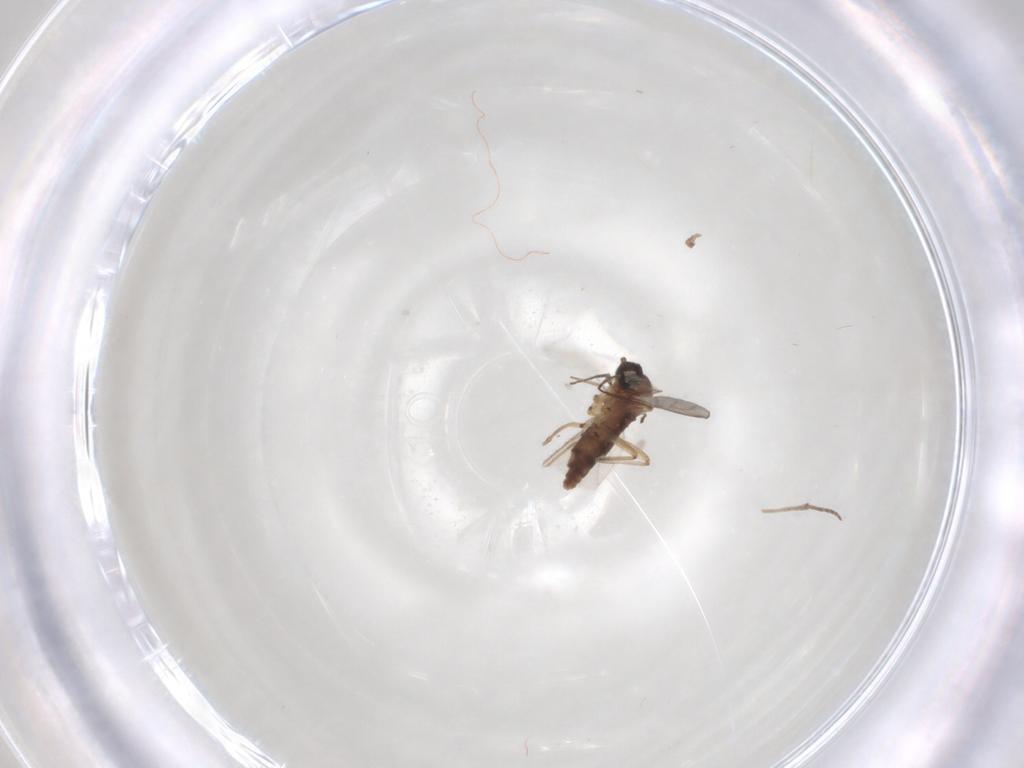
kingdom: Animalia
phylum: Arthropoda
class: Insecta
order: Diptera
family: Sciaridae
